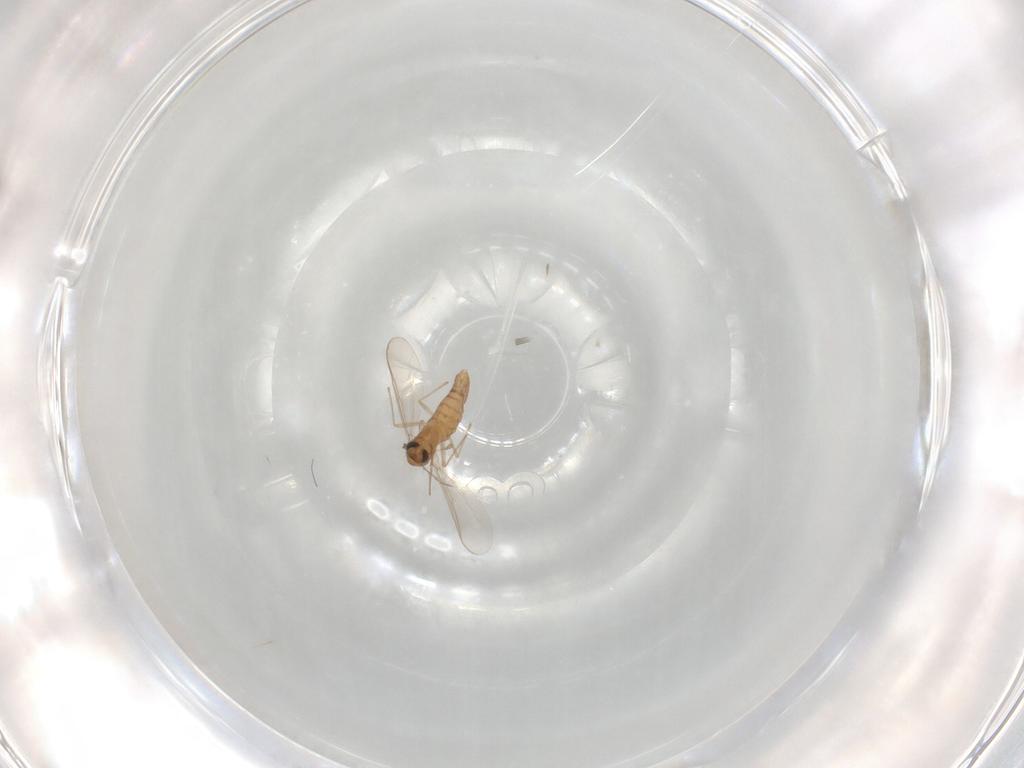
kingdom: Animalia
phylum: Arthropoda
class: Insecta
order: Diptera
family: Chironomidae
